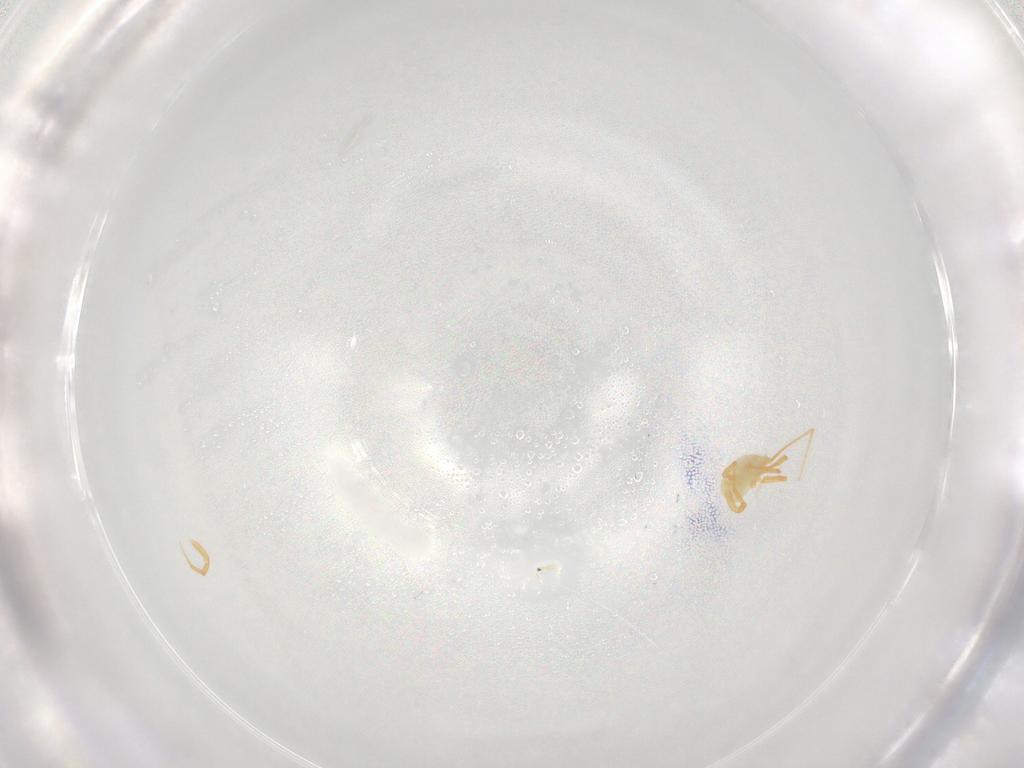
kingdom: Animalia
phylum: Arthropoda
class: Arachnida
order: Trombidiformes
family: Eupodidae
